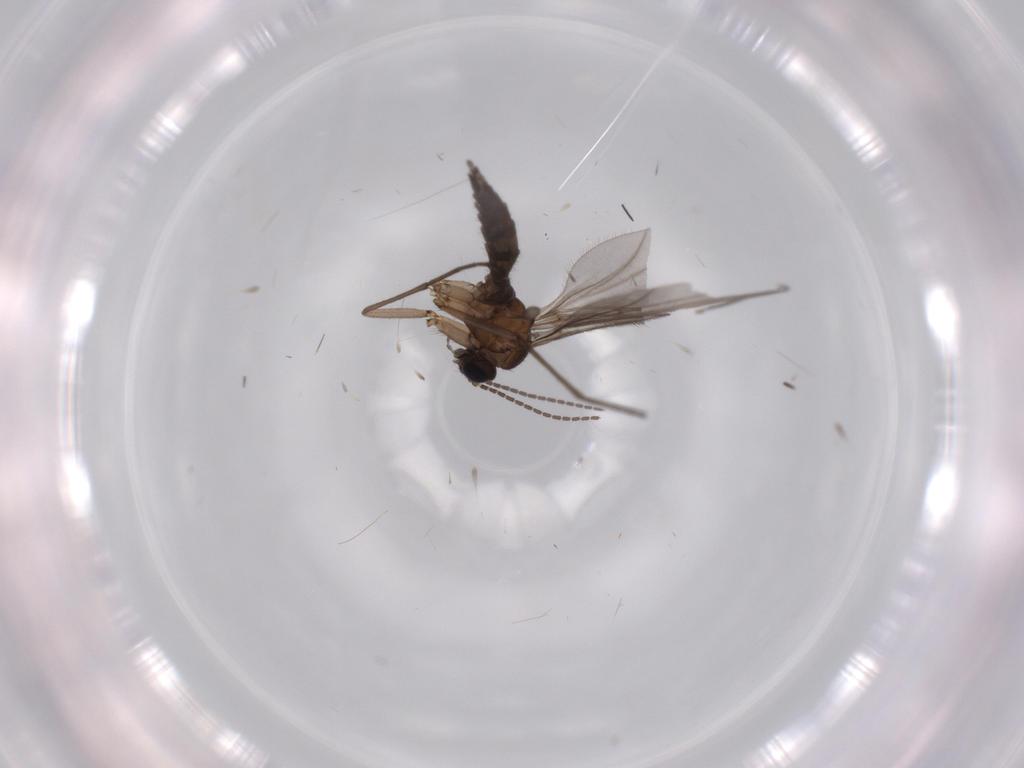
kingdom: Animalia
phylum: Arthropoda
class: Insecta
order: Diptera
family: Sciaridae
